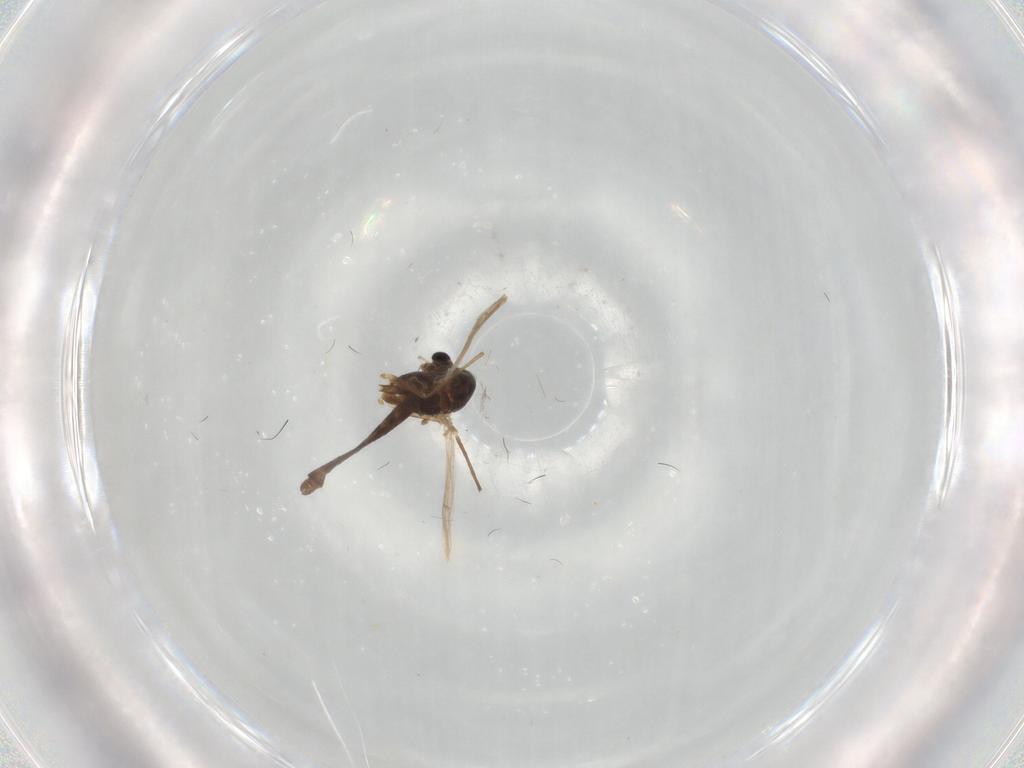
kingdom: Animalia
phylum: Arthropoda
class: Insecta
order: Diptera
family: Chironomidae
